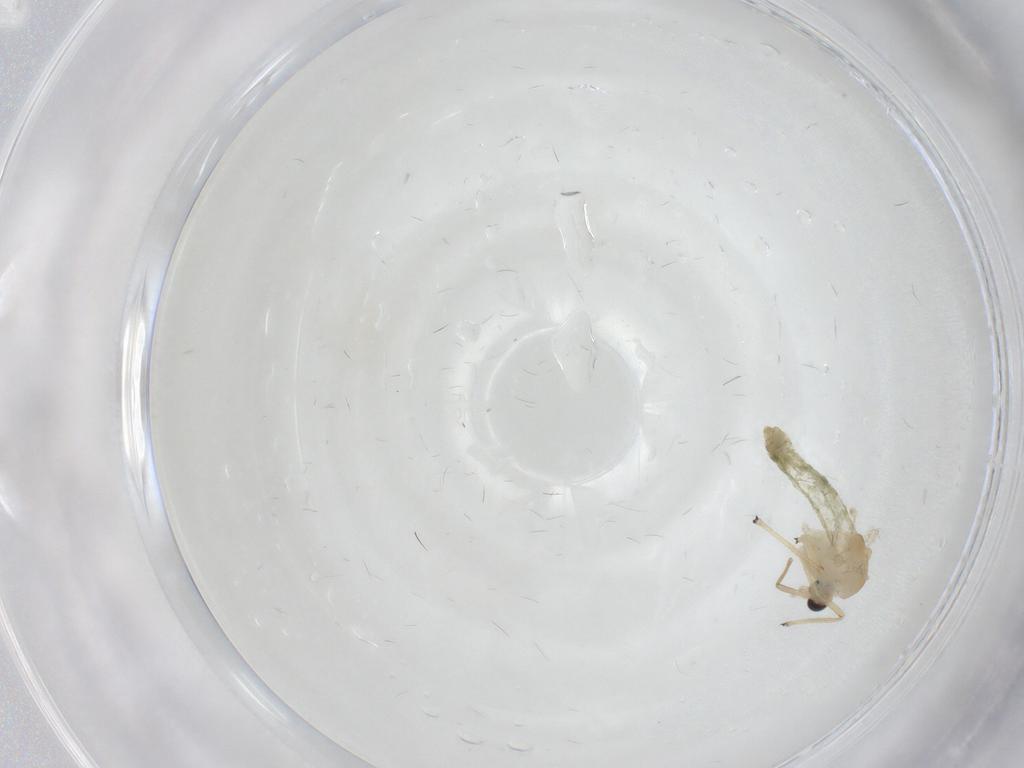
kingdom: Animalia
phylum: Arthropoda
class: Insecta
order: Diptera
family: Chironomidae
